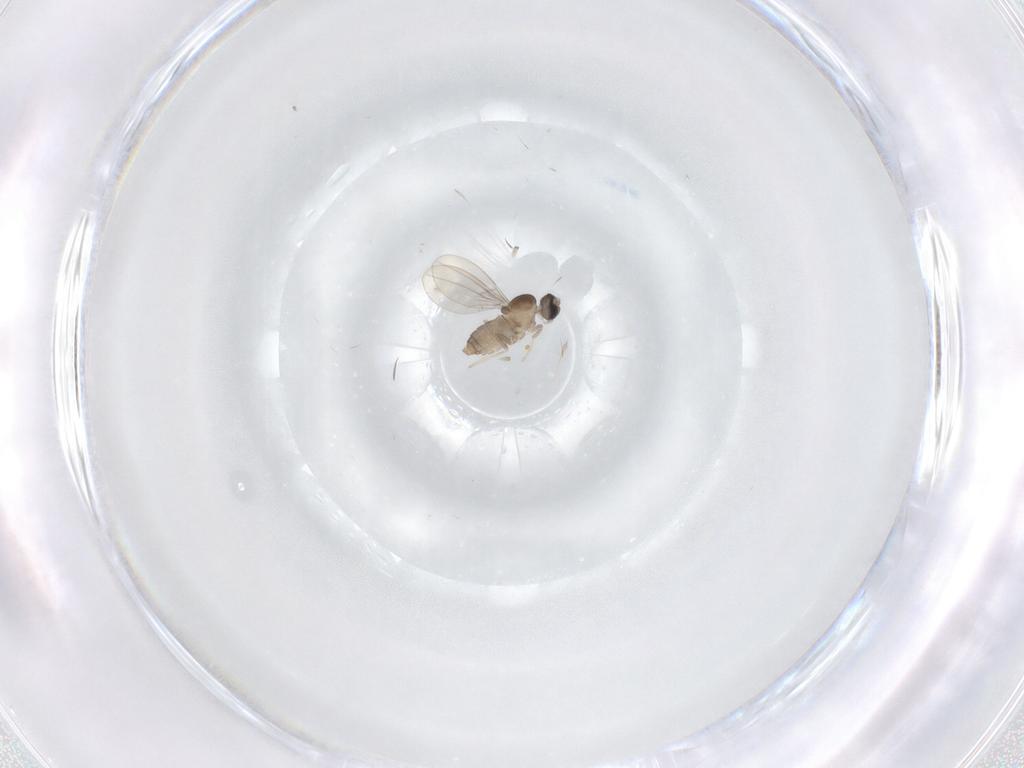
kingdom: Animalia
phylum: Arthropoda
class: Insecta
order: Diptera
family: Cecidomyiidae
